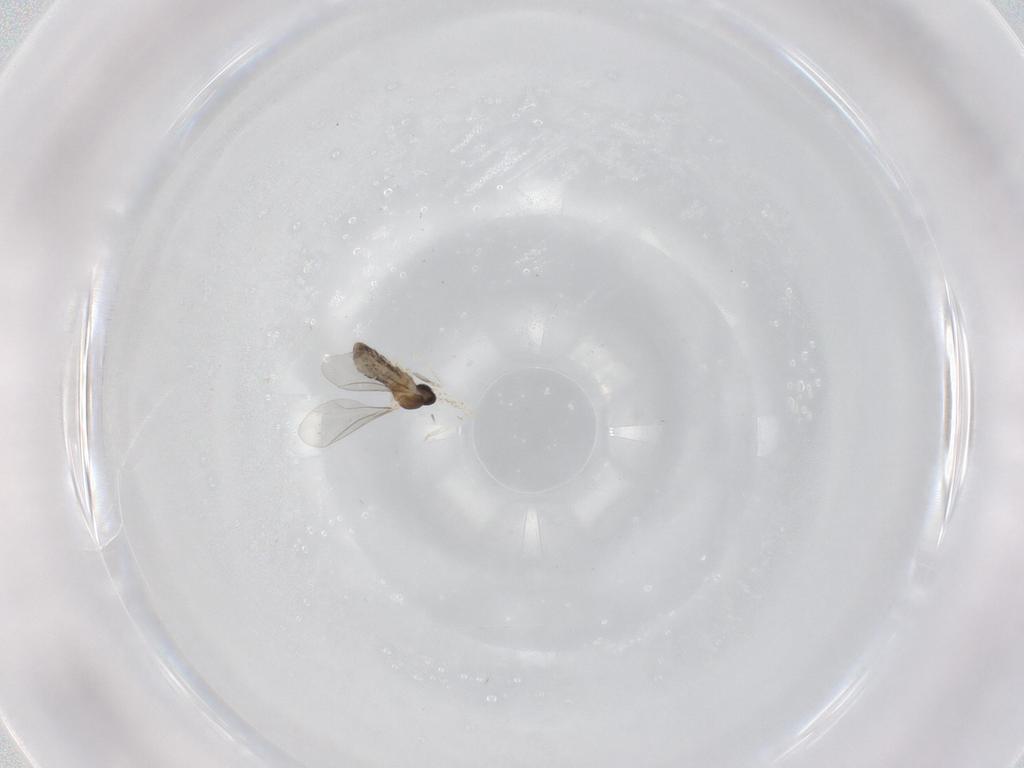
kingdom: Animalia
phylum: Arthropoda
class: Insecta
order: Diptera
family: Cecidomyiidae
